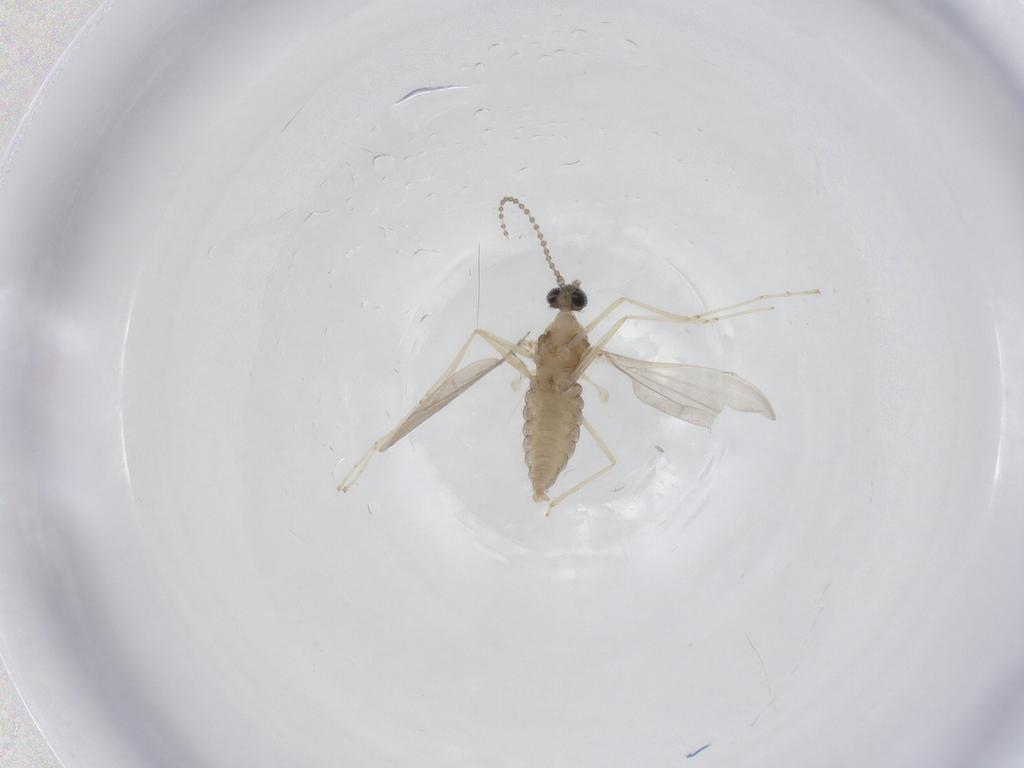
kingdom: Animalia
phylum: Arthropoda
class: Insecta
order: Diptera
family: Cecidomyiidae
